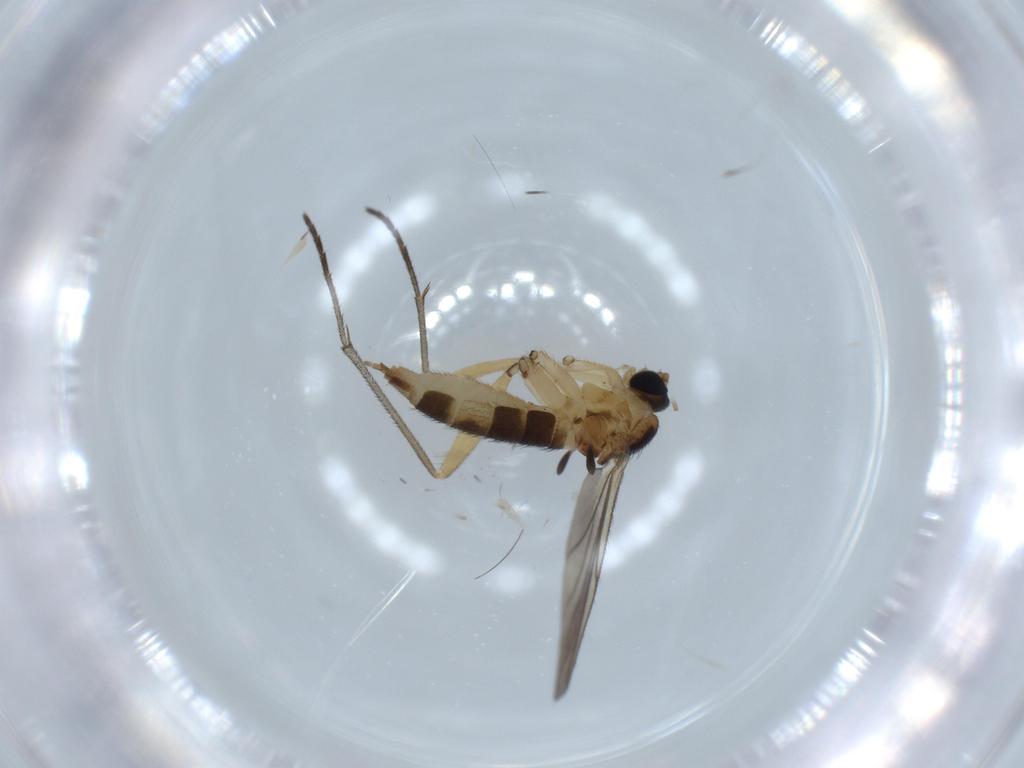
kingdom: Animalia
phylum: Arthropoda
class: Insecta
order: Diptera
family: Sciaridae
